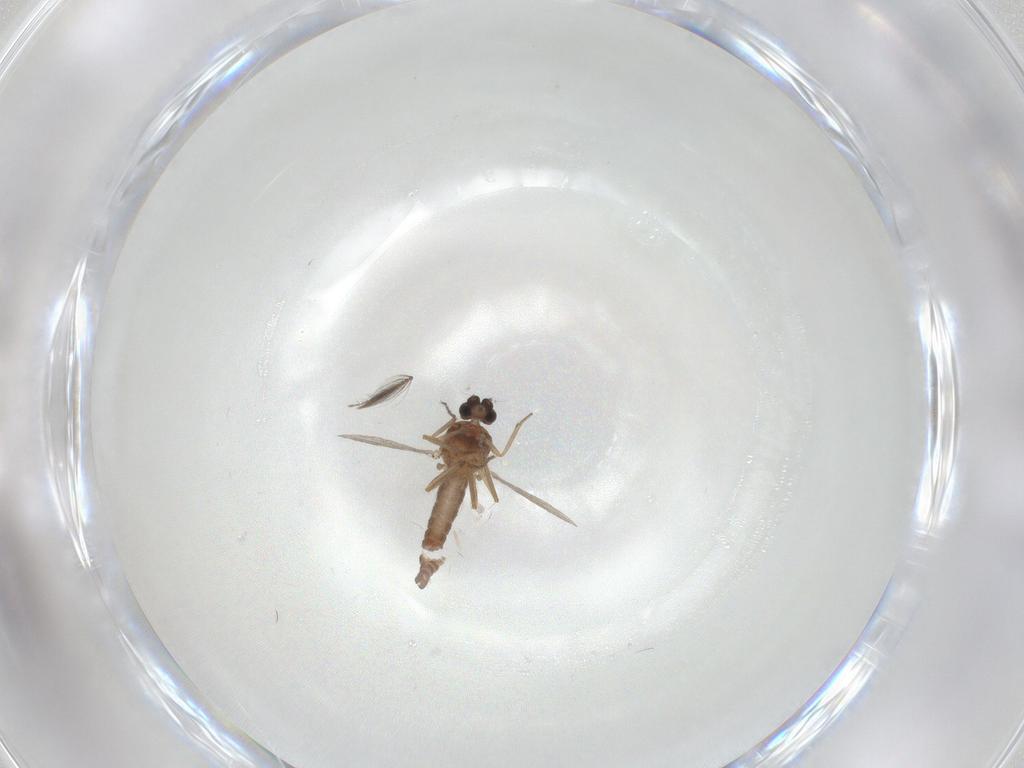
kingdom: Animalia
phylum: Arthropoda
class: Insecta
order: Diptera
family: Ceratopogonidae
